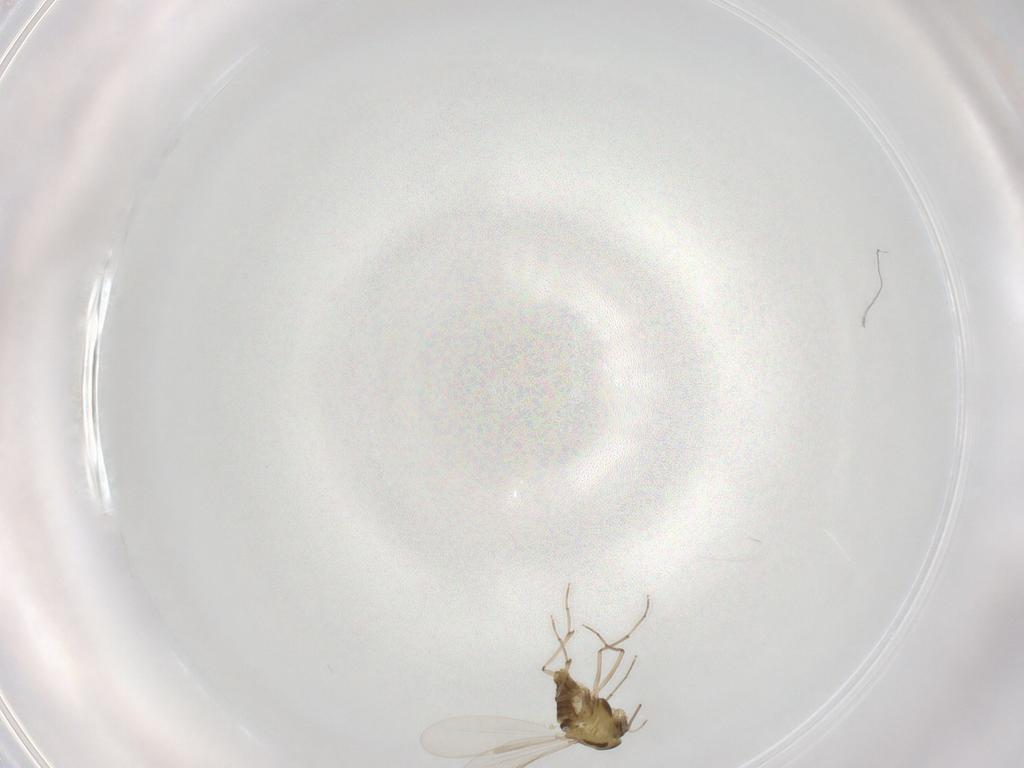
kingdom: Animalia
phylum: Arthropoda
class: Insecta
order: Diptera
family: Chironomidae
